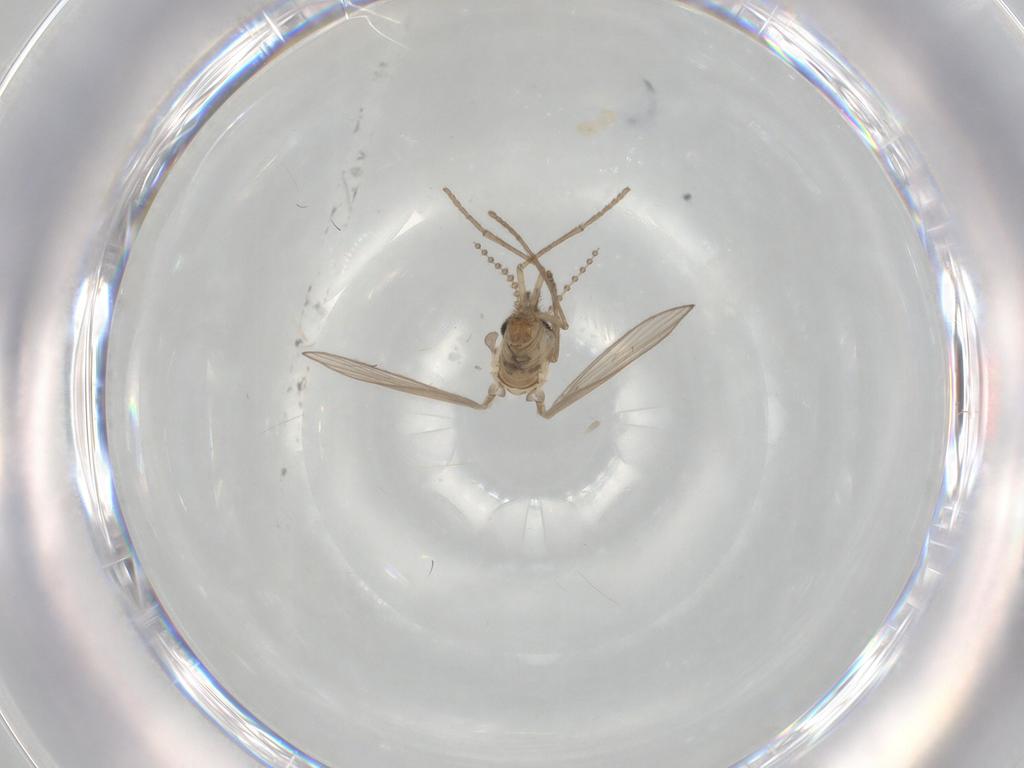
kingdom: Animalia
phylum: Arthropoda
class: Insecta
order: Diptera
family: Psychodidae
